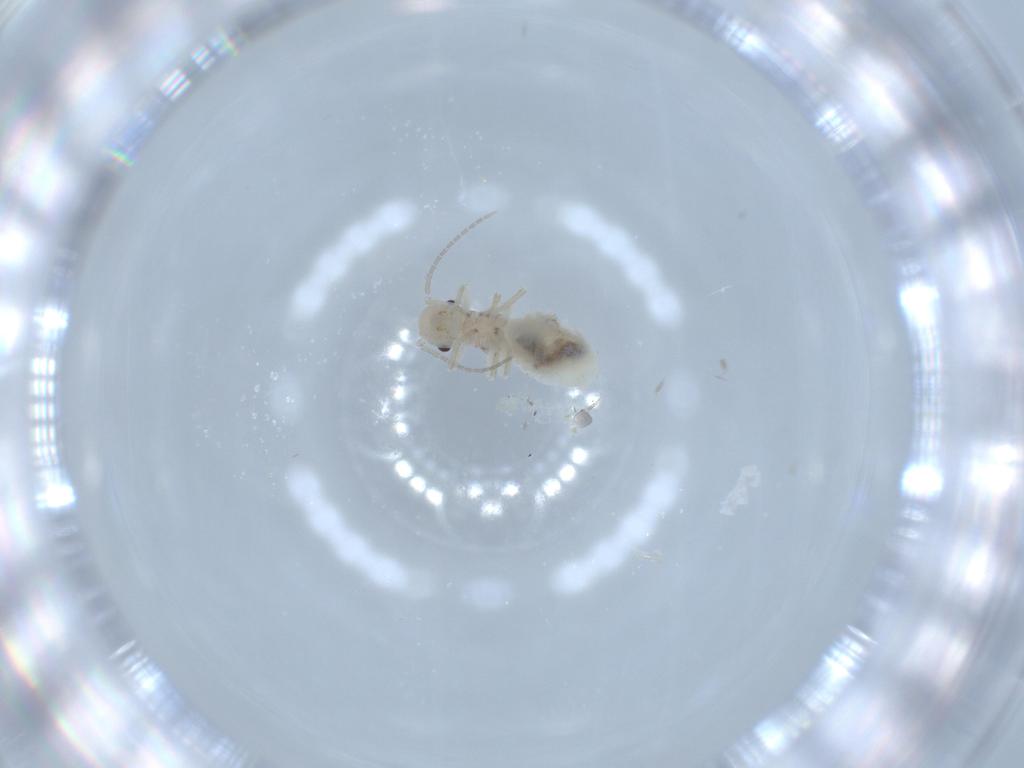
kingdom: Animalia
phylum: Arthropoda
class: Insecta
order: Psocodea
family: Amphipsocidae
